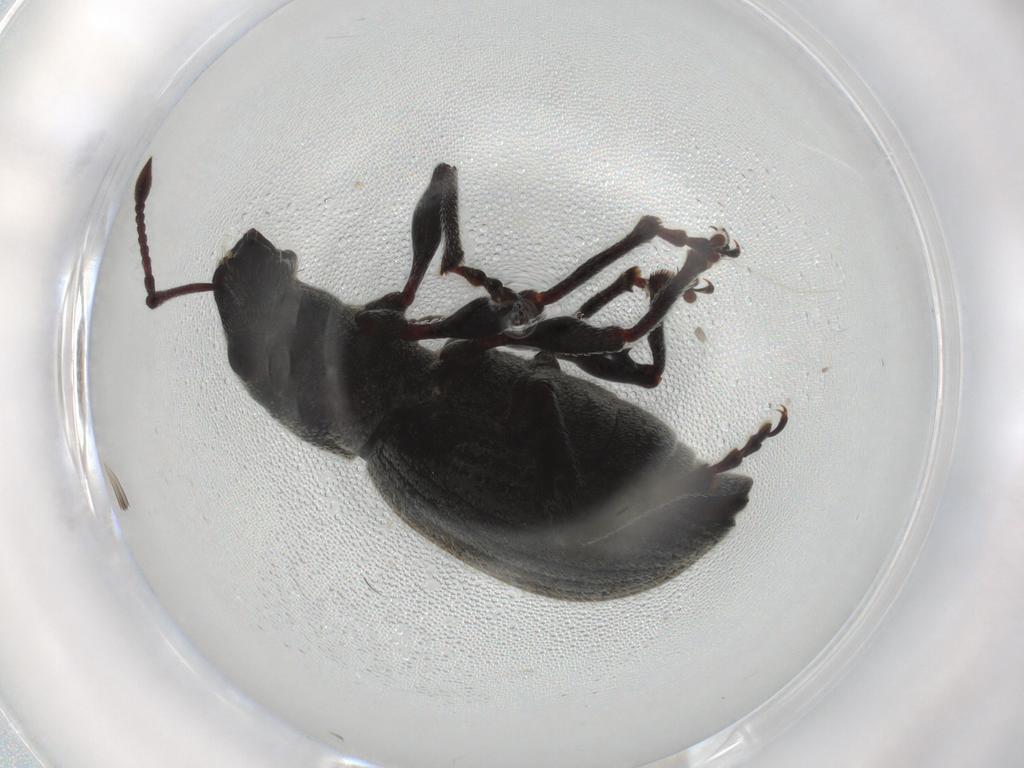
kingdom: Animalia
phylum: Arthropoda
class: Insecta
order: Coleoptera
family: Curculionidae
